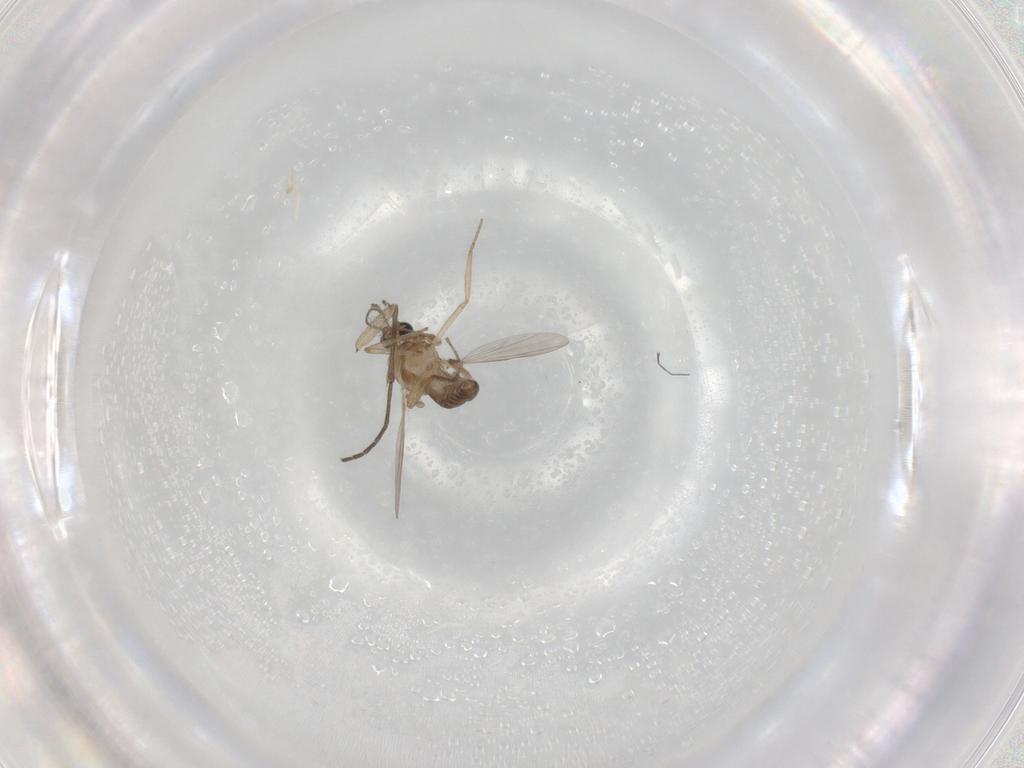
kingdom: Animalia
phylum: Arthropoda
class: Insecta
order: Diptera
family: Ceratopogonidae
